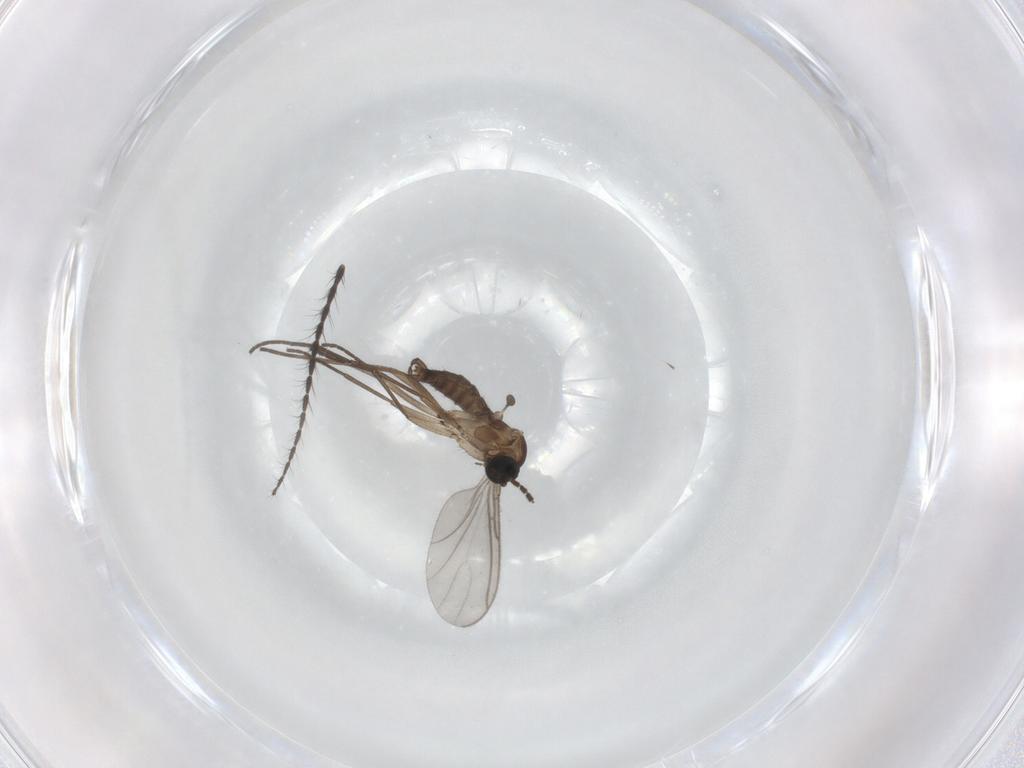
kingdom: Animalia
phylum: Arthropoda
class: Insecta
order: Diptera
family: Sciaridae
